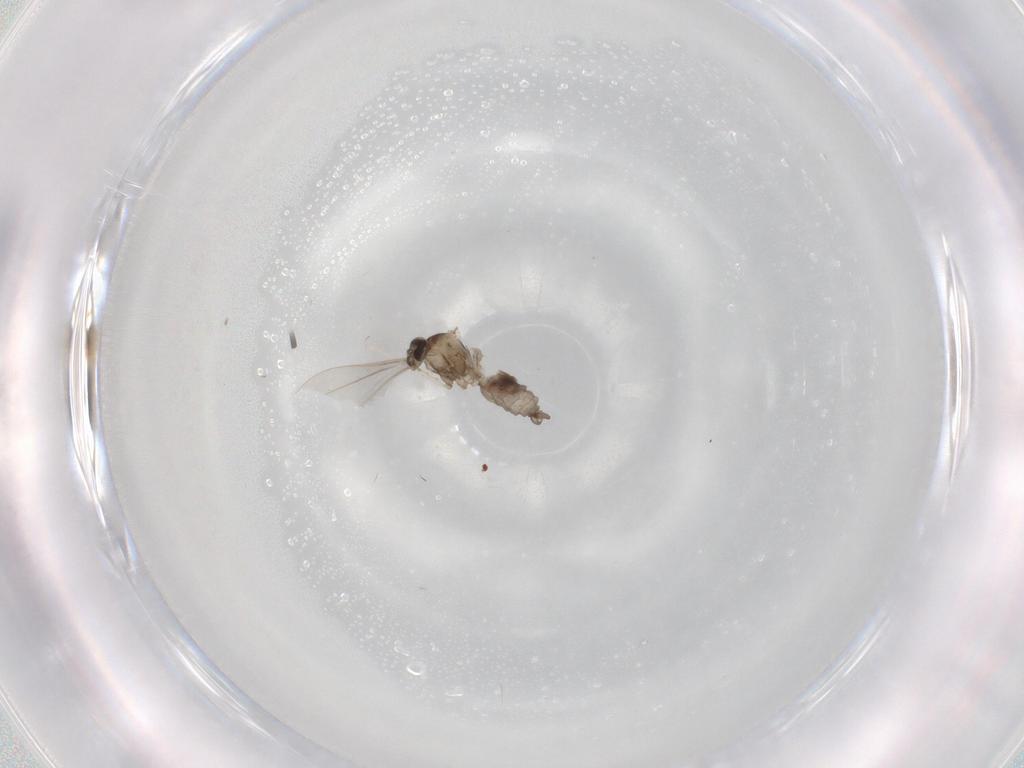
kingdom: Animalia
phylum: Arthropoda
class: Insecta
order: Diptera
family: Cecidomyiidae
